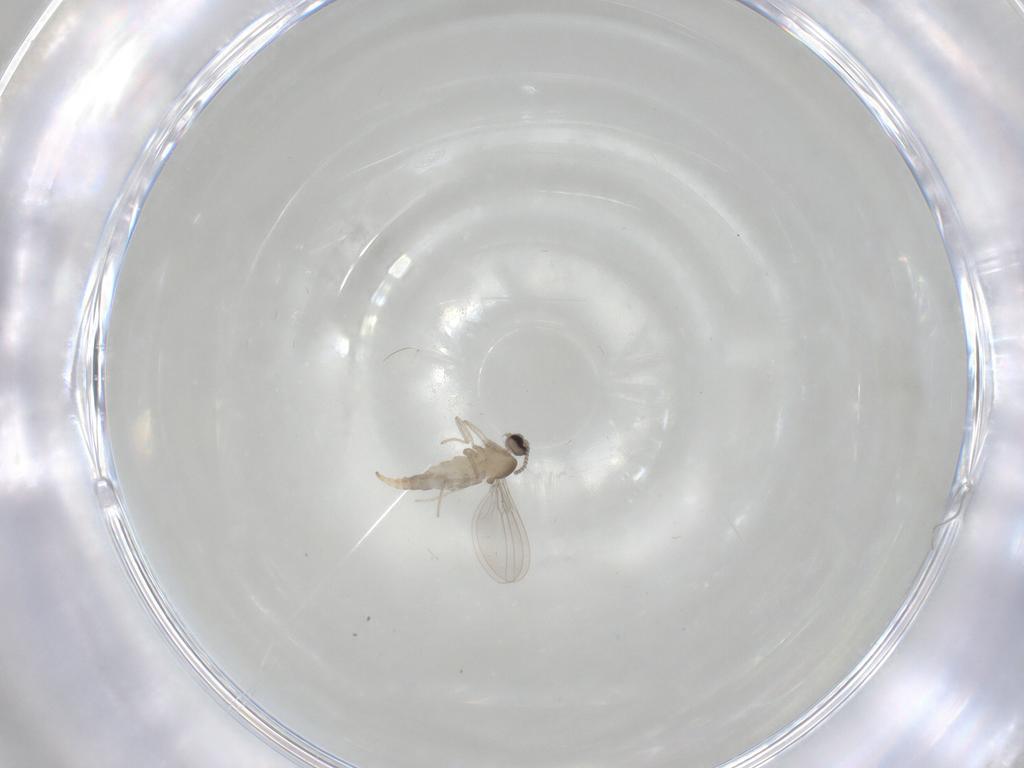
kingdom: Animalia
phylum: Arthropoda
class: Insecta
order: Diptera
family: Cecidomyiidae
